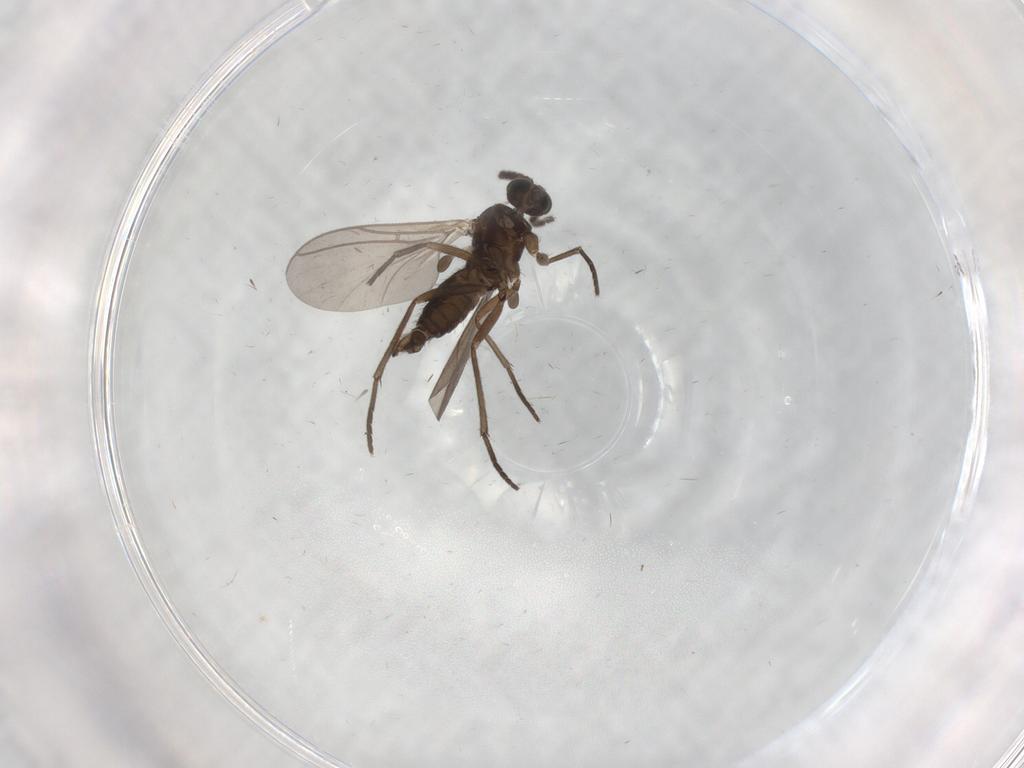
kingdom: Animalia
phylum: Arthropoda
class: Insecta
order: Diptera
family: Sciaridae
